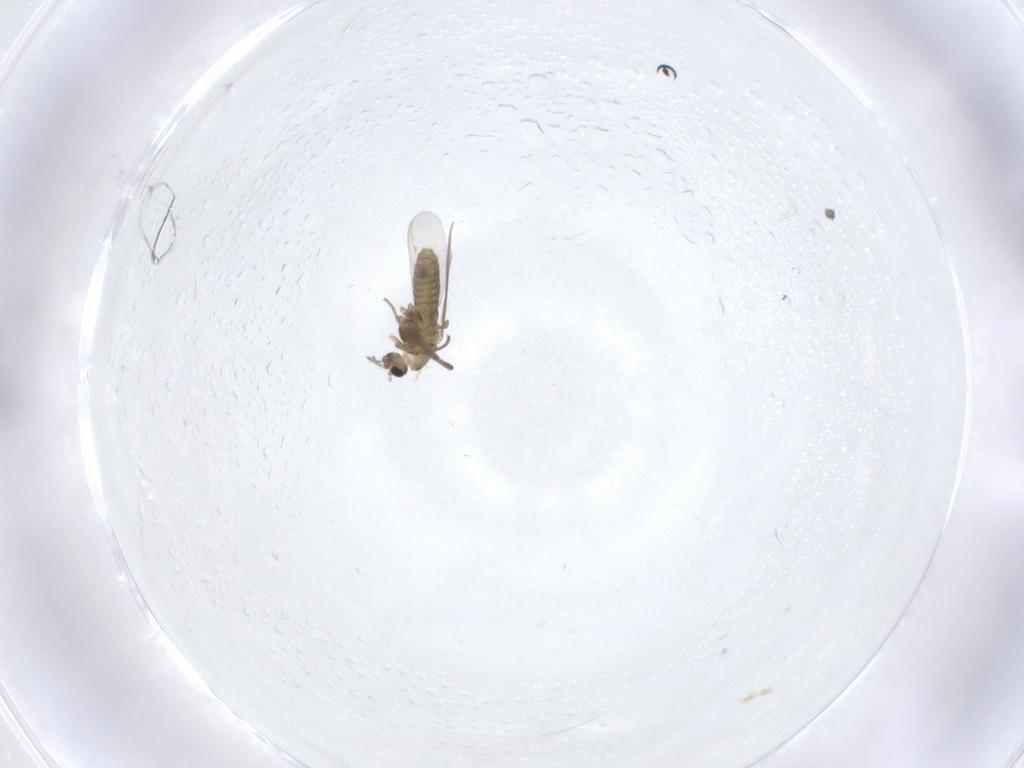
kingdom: Animalia
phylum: Arthropoda
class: Insecta
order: Diptera
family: Chironomidae
